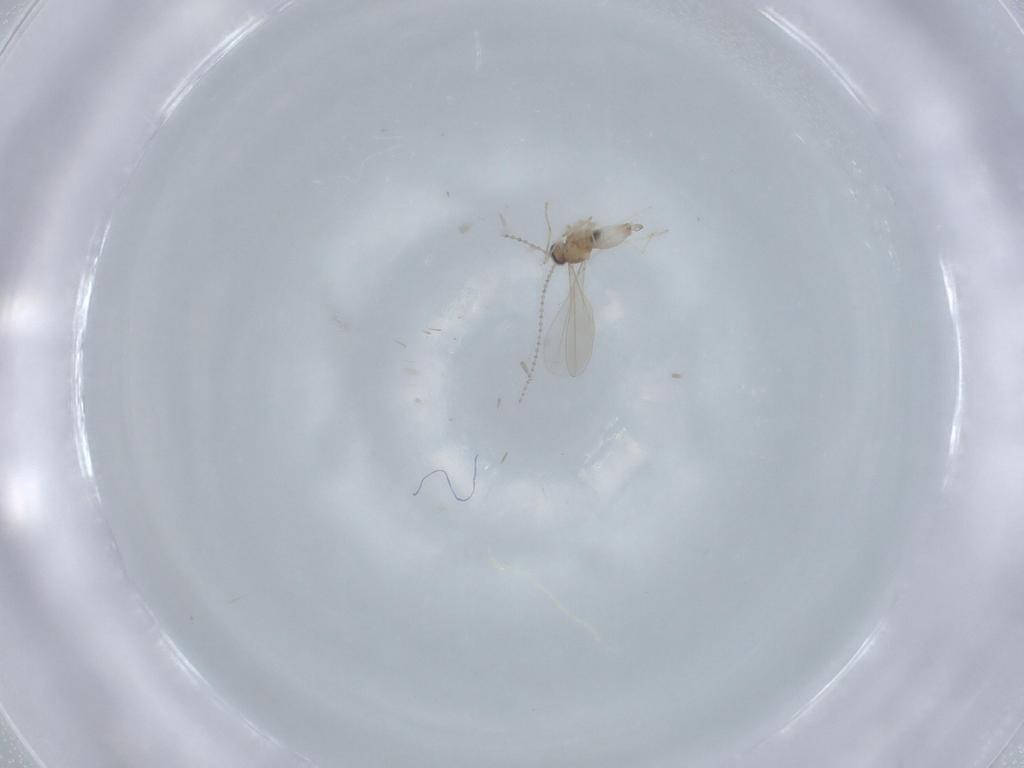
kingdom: Animalia
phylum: Arthropoda
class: Insecta
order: Diptera
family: Cecidomyiidae
